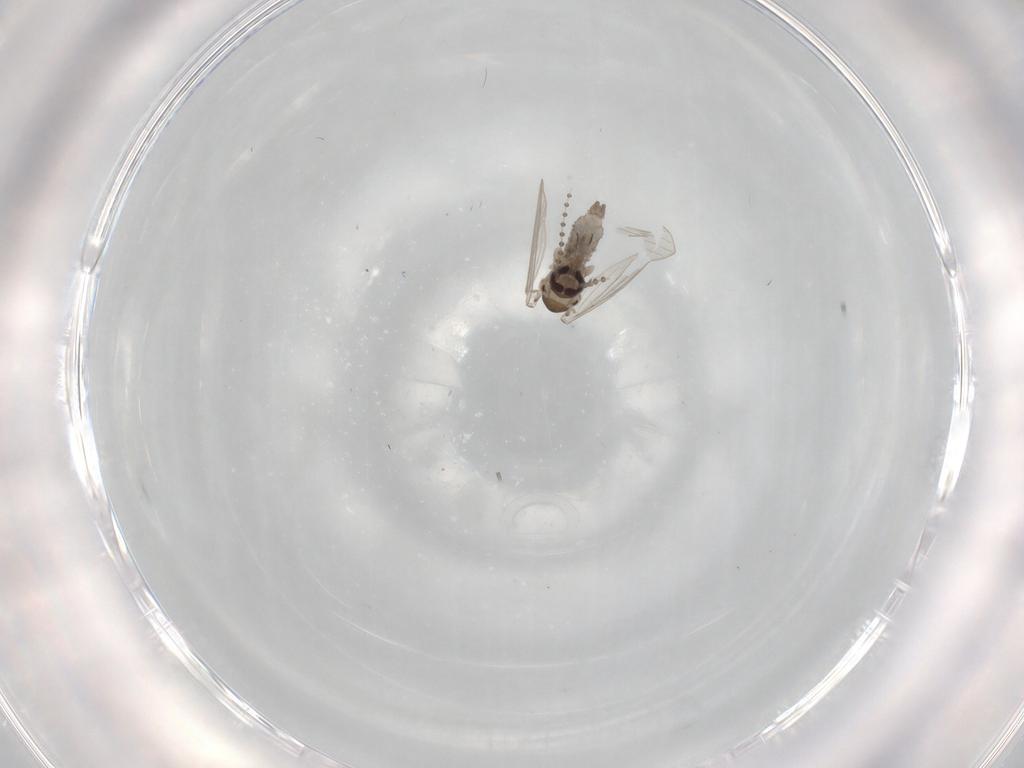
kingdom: Animalia
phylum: Arthropoda
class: Insecta
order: Diptera
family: Psychodidae
